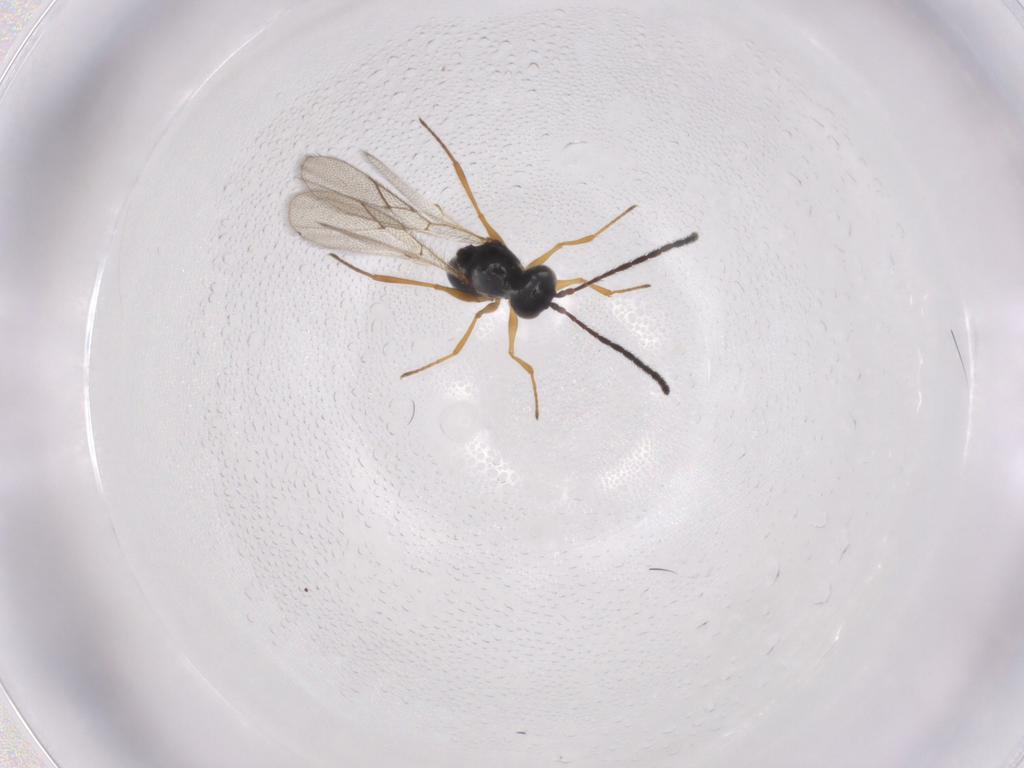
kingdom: Animalia
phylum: Arthropoda
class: Insecta
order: Hymenoptera
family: Figitidae
